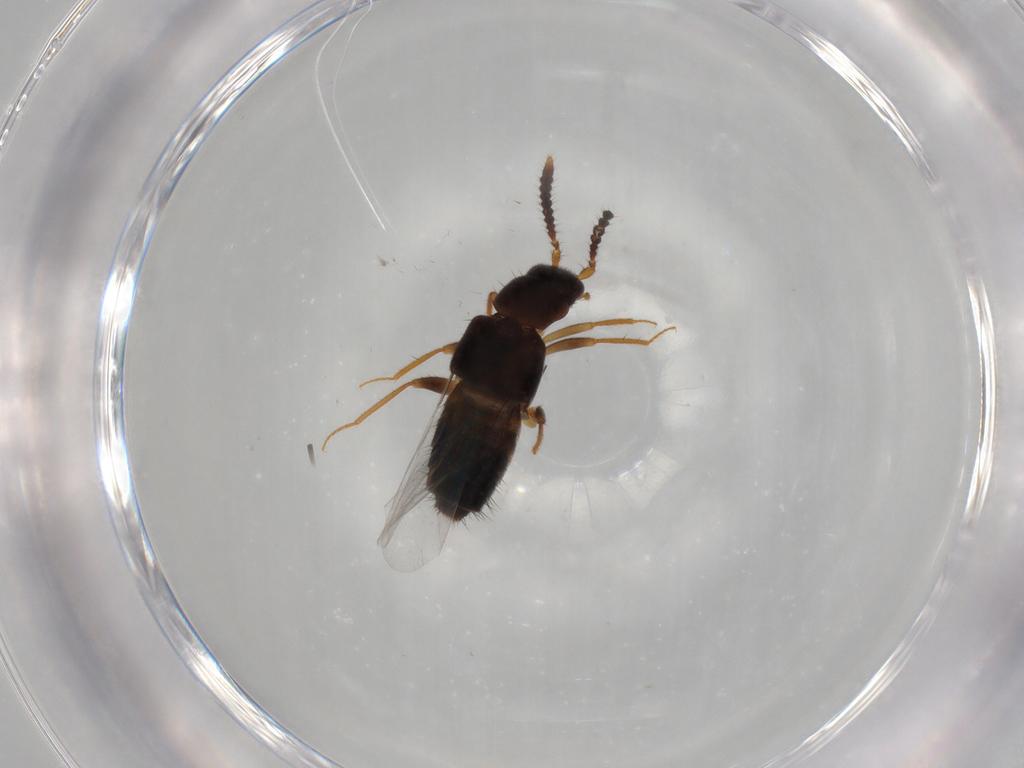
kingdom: Animalia
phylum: Arthropoda
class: Insecta
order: Coleoptera
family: Staphylinidae
